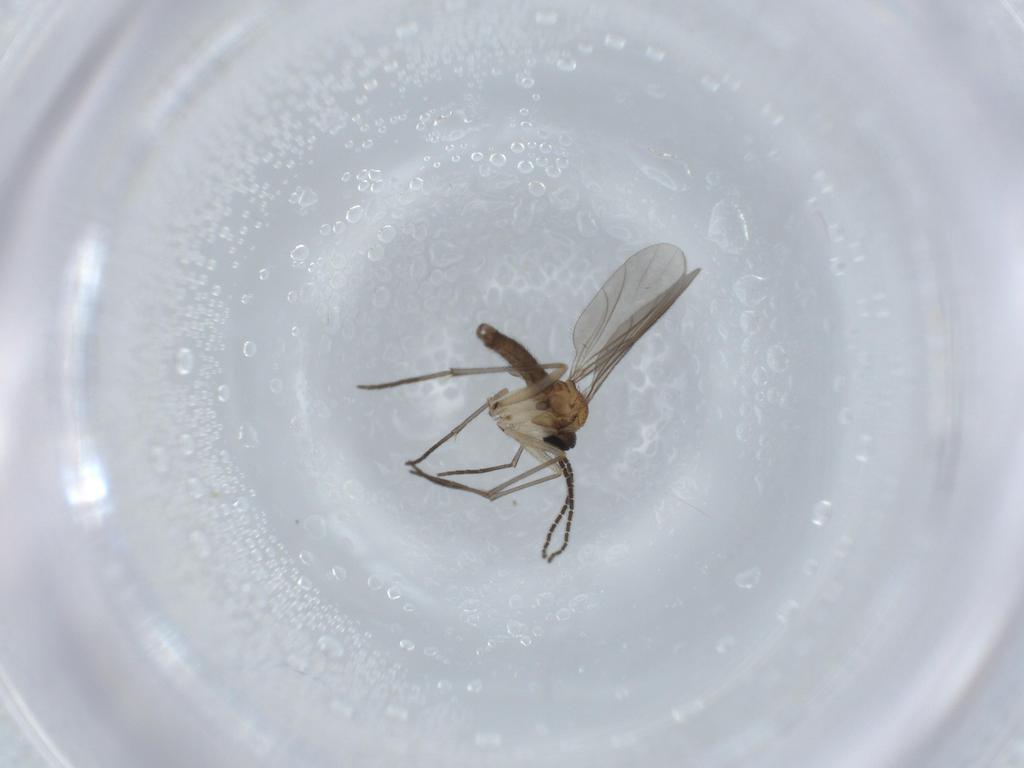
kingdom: Animalia
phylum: Arthropoda
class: Insecta
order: Diptera
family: Sciaridae
